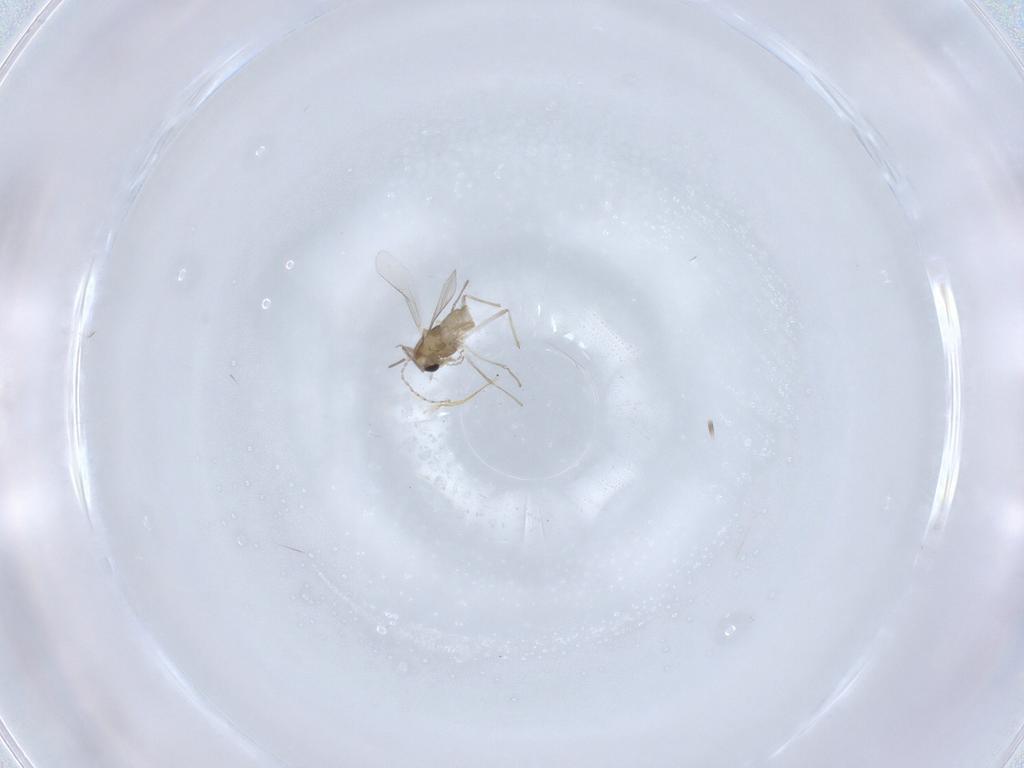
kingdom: Animalia
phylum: Arthropoda
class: Insecta
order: Diptera
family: Chironomidae
